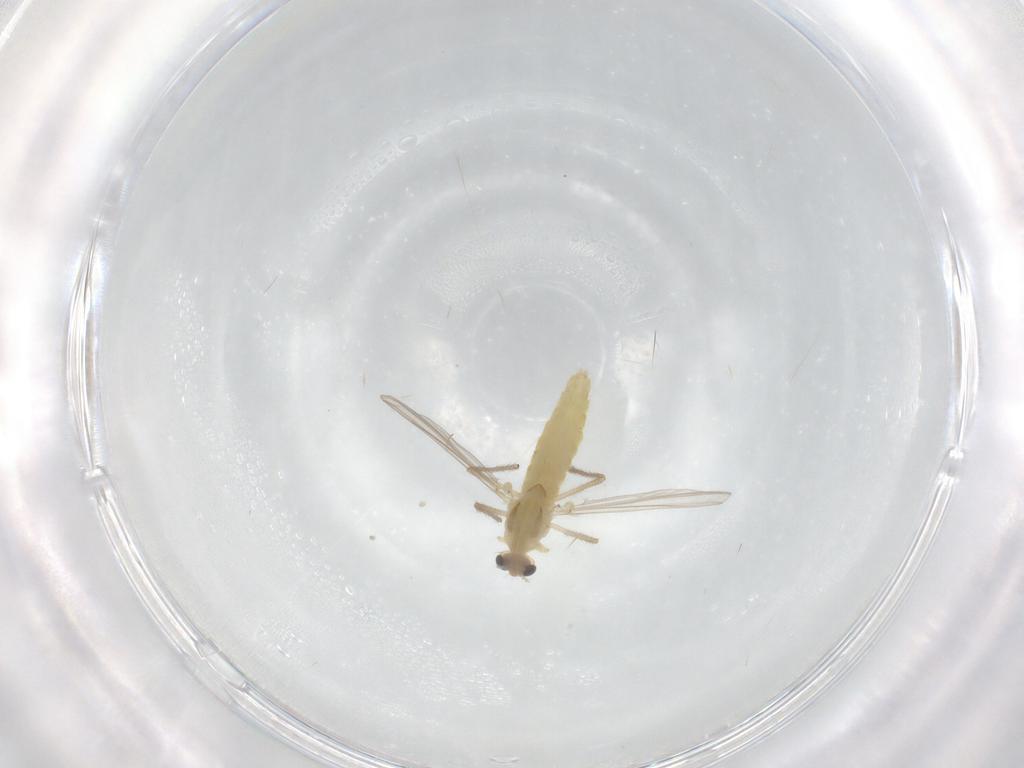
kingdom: Animalia
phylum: Arthropoda
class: Insecta
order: Diptera
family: Chironomidae
